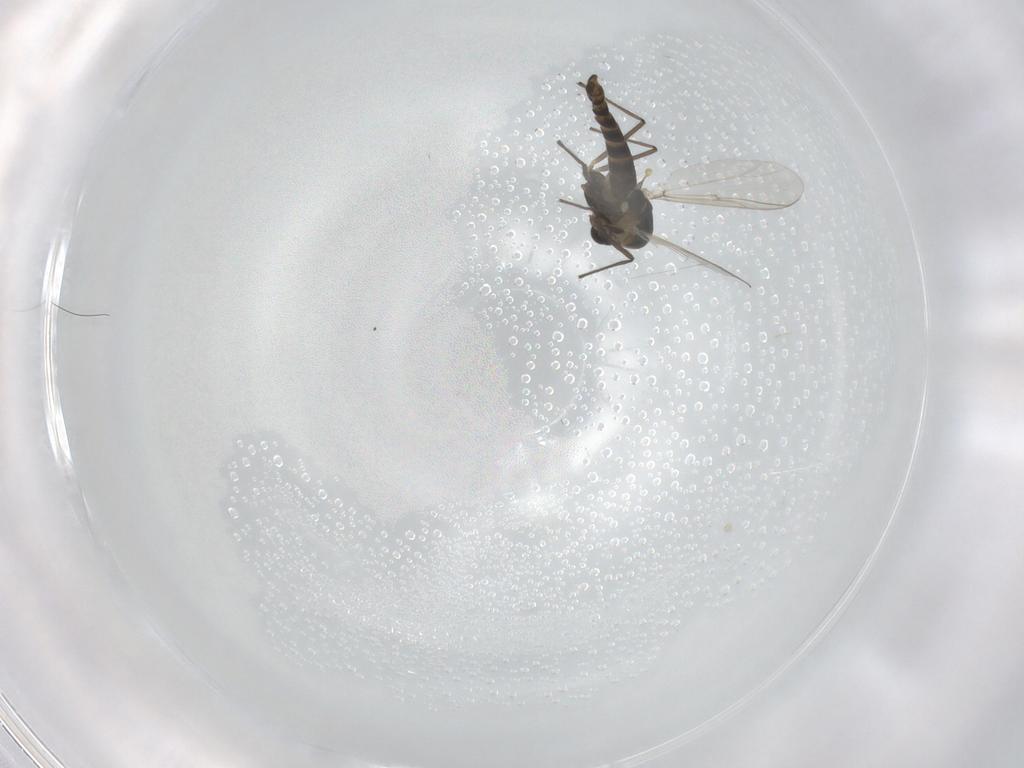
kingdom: Animalia
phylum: Arthropoda
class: Insecta
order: Diptera
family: Chironomidae
